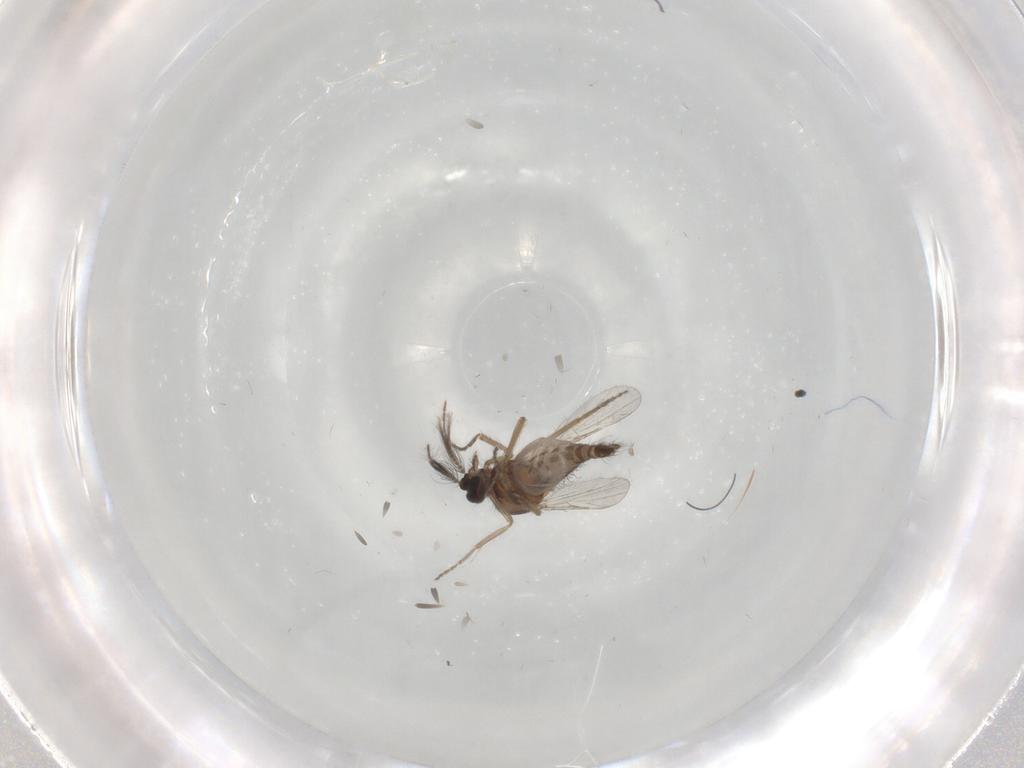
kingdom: Animalia
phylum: Arthropoda
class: Insecta
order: Diptera
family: Chironomidae
